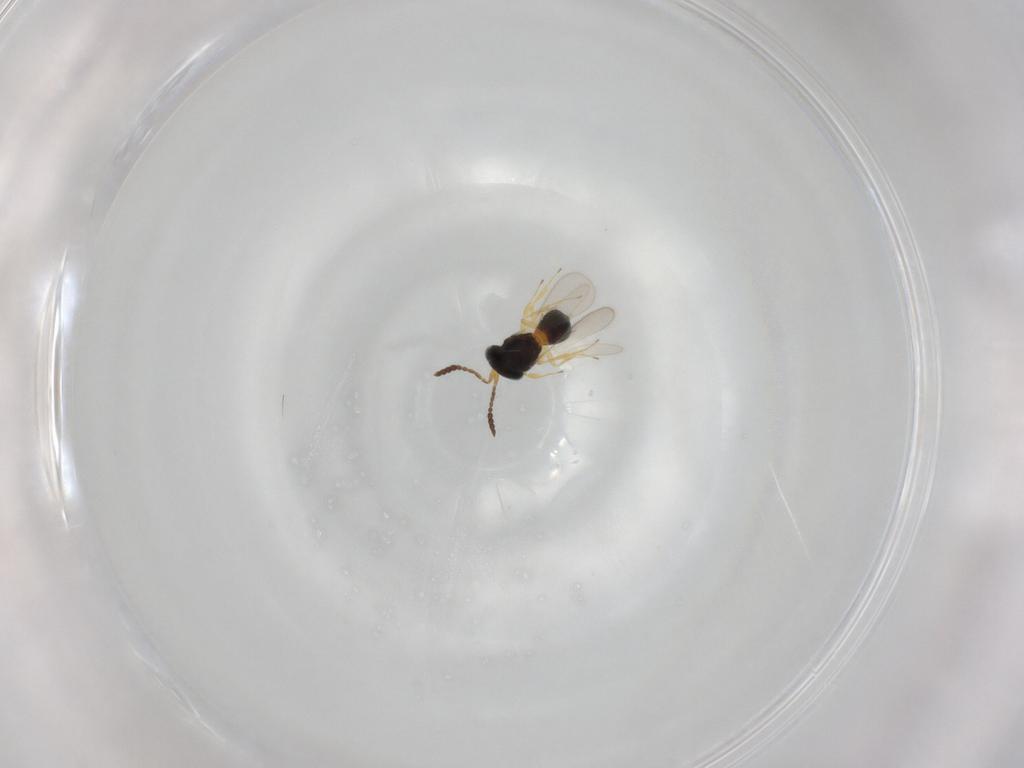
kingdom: Animalia
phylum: Arthropoda
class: Insecta
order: Hymenoptera
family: Scelionidae
